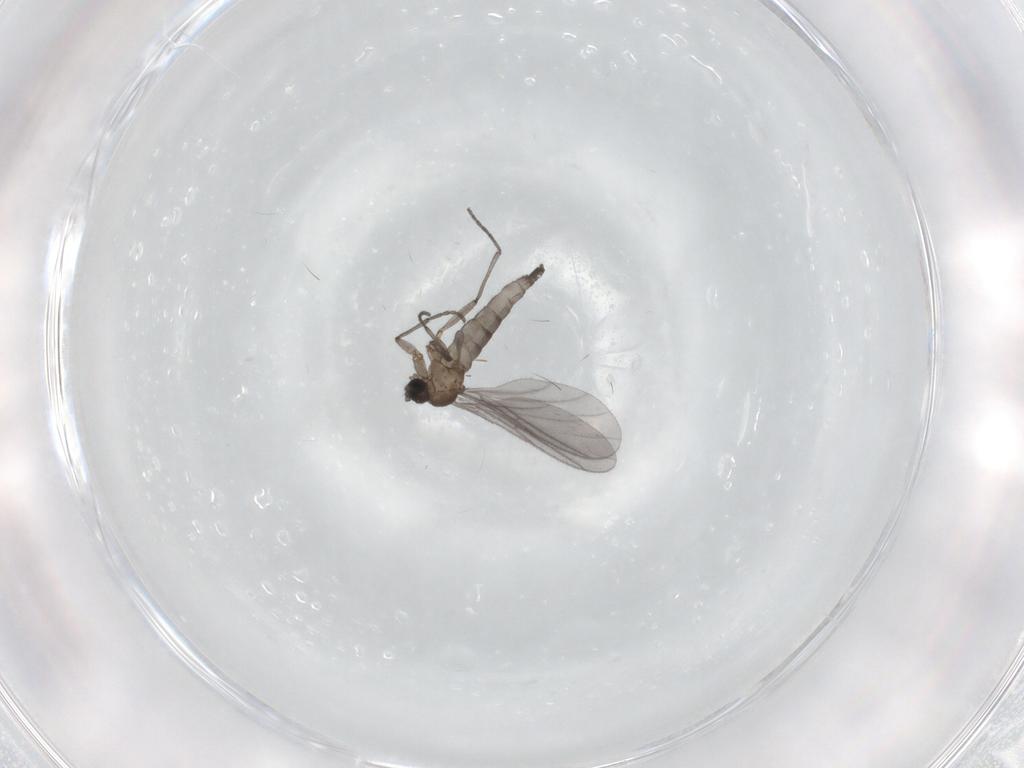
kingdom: Animalia
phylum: Arthropoda
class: Insecta
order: Diptera
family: Sciaridae
